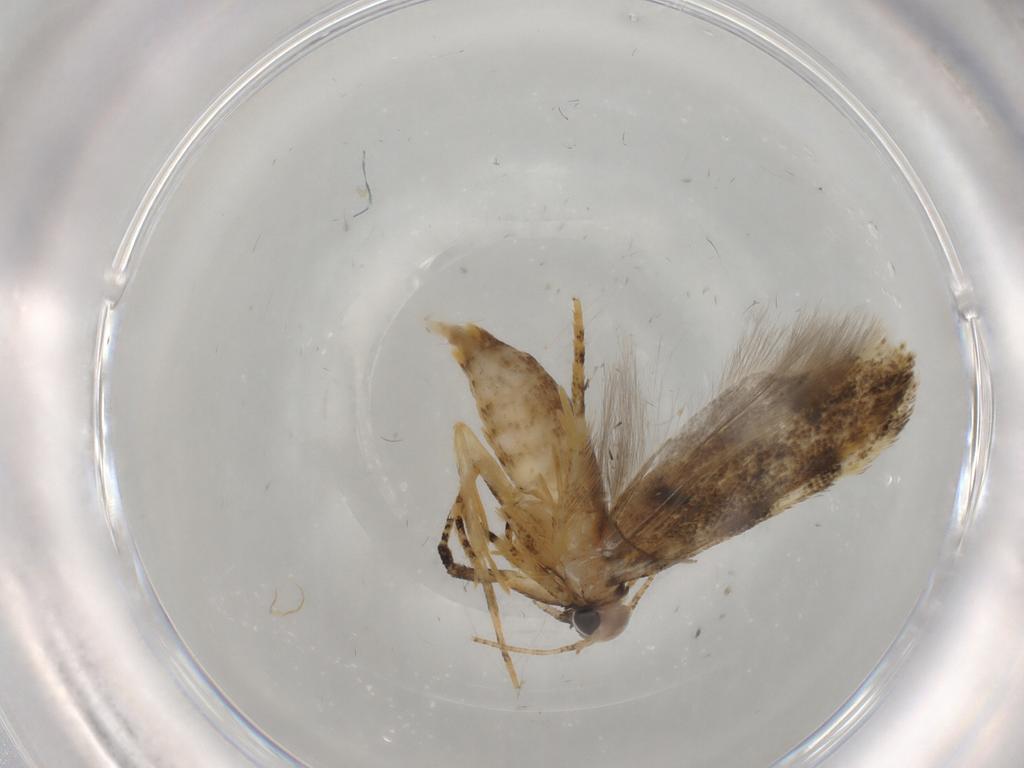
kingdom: Animalia
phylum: Arthropoda
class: Insecta
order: Lepidoptera
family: Gelechiidae
